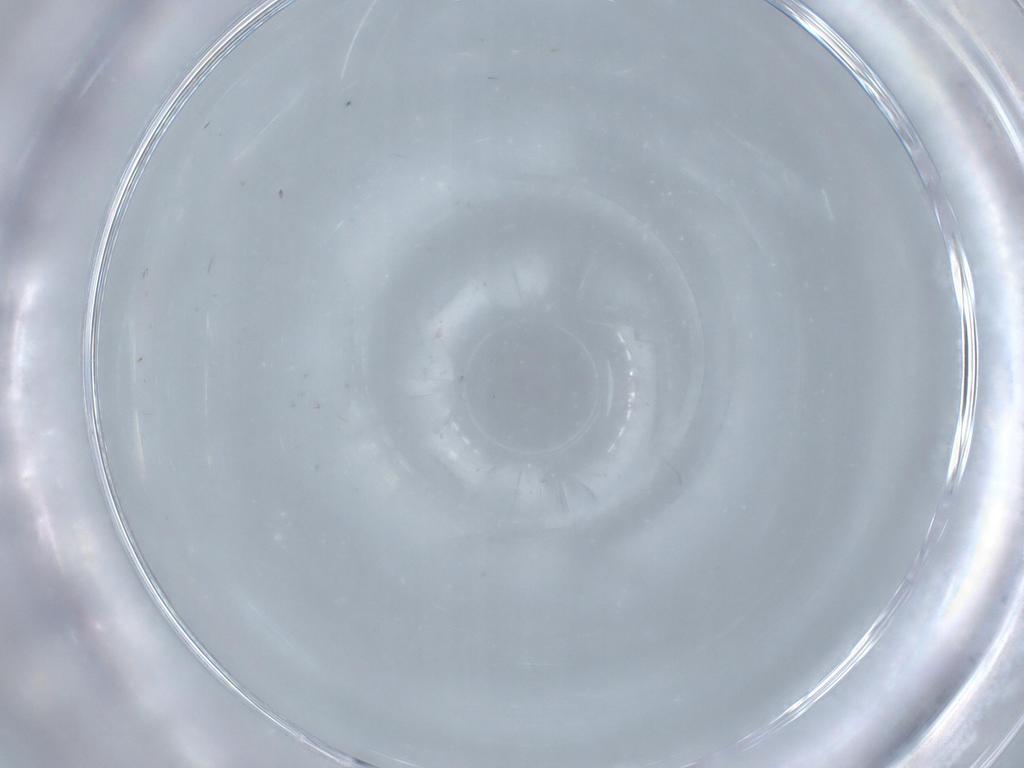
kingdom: Animalia
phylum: Arthropoda
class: Insecta
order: Hymenoptera
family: Aphelinidae
